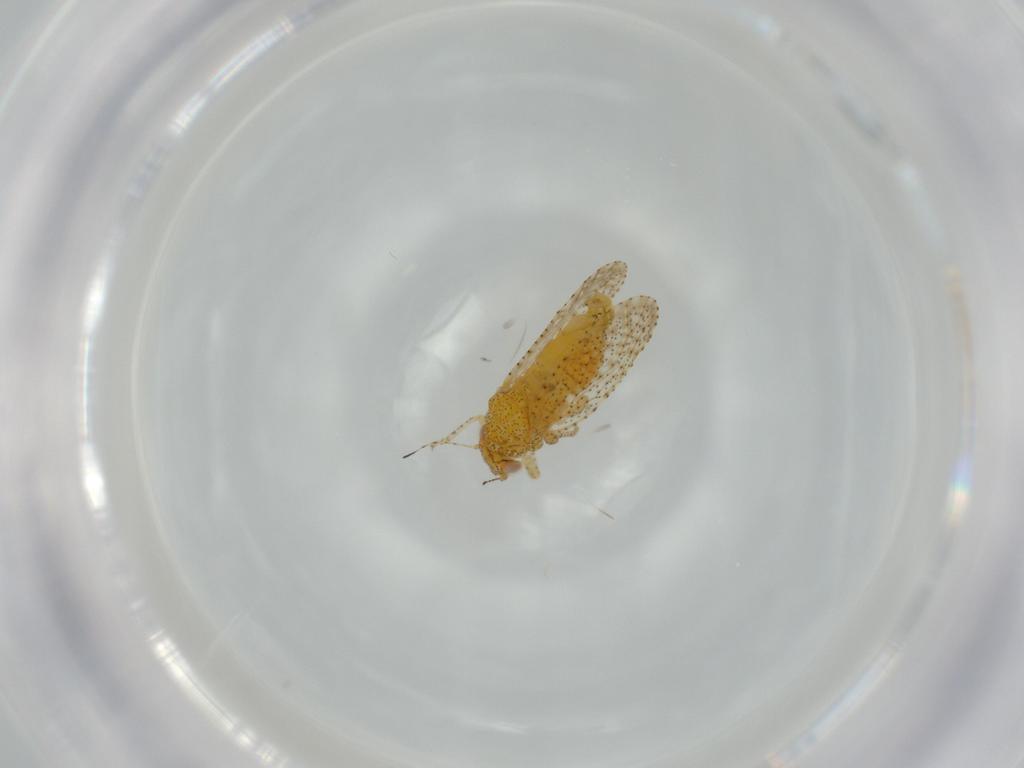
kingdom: Animalia
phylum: Arthropoda
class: Insecta
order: Hemiptera
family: Psyllidae
